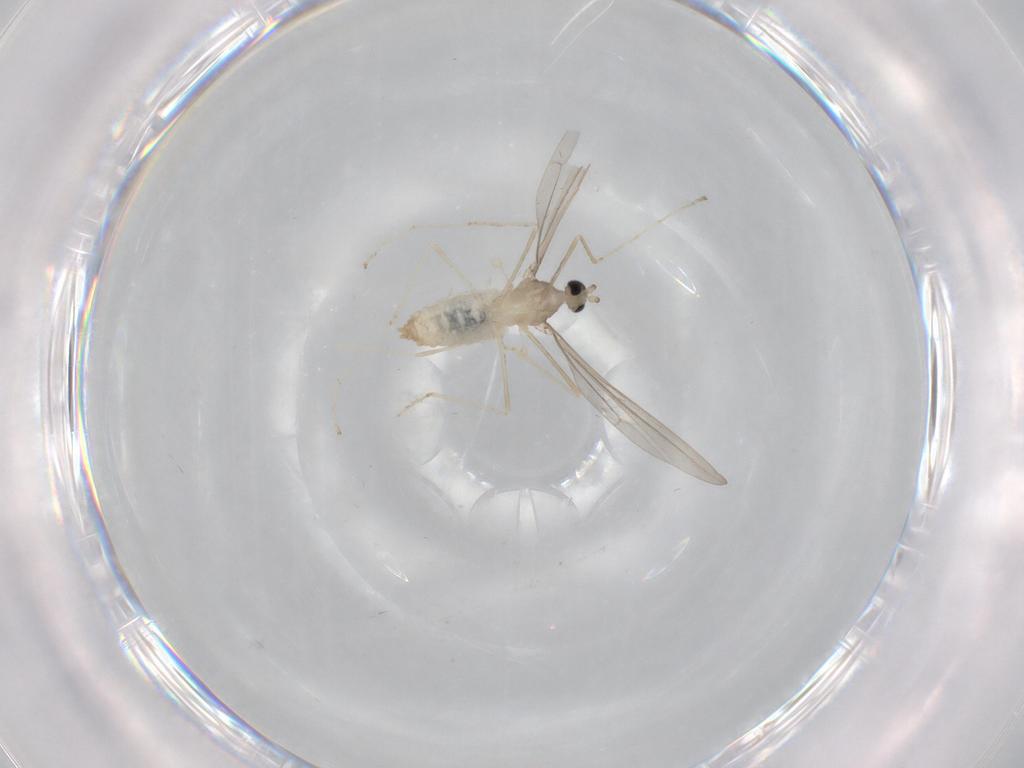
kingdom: Animalia
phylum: Arthropoda
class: Insecta
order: Diptera
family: Cecidomyiidae
